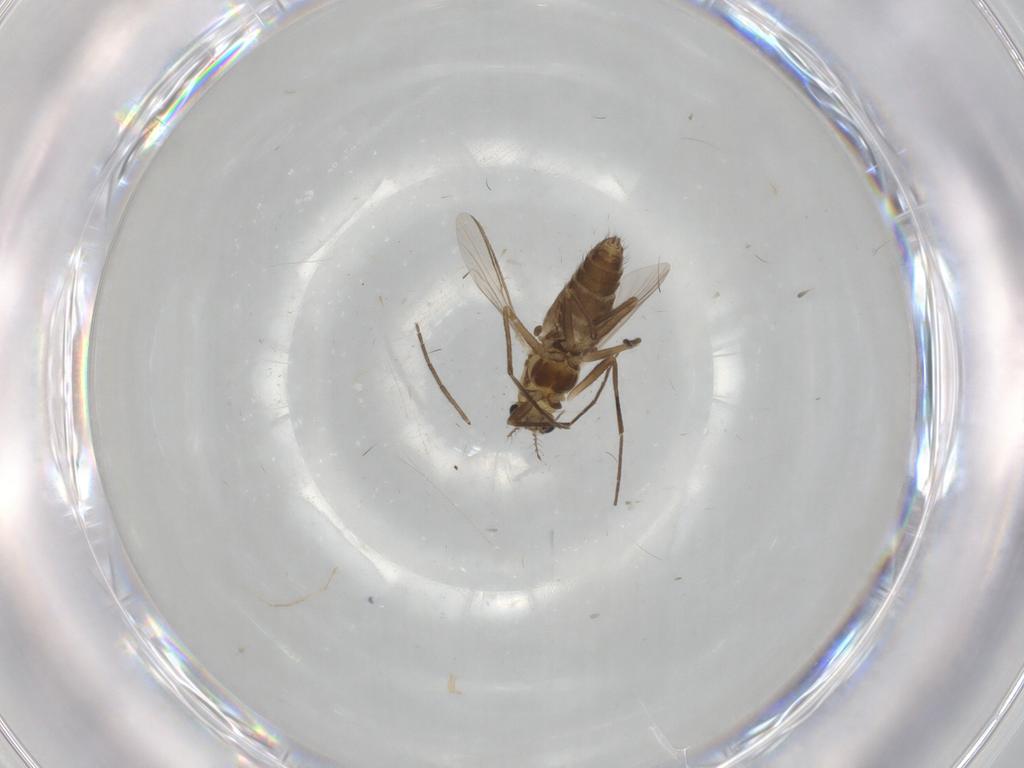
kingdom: Animalia
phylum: Arthropoda
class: Insecta
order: Diptera
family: Chironomidae
